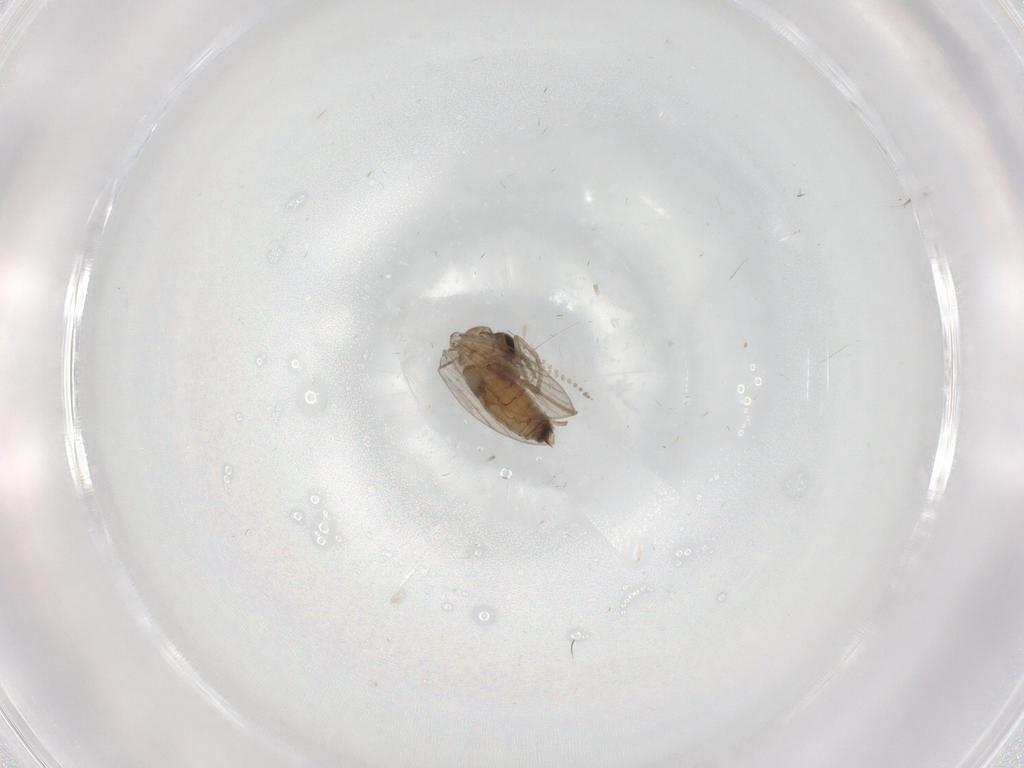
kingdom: Animalia
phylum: Arthropoda
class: Insecta
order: Diptera
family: Psychodidae
